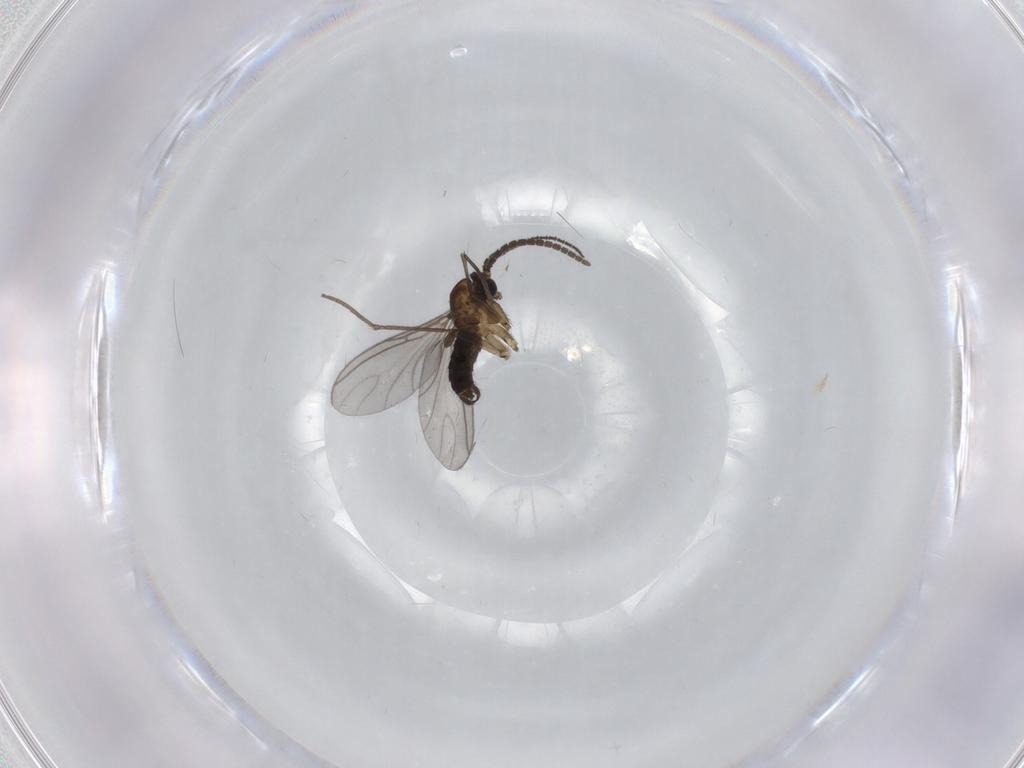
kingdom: Animalia
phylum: Arthropoda
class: Insecta
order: Diptera
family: Sciaridae
